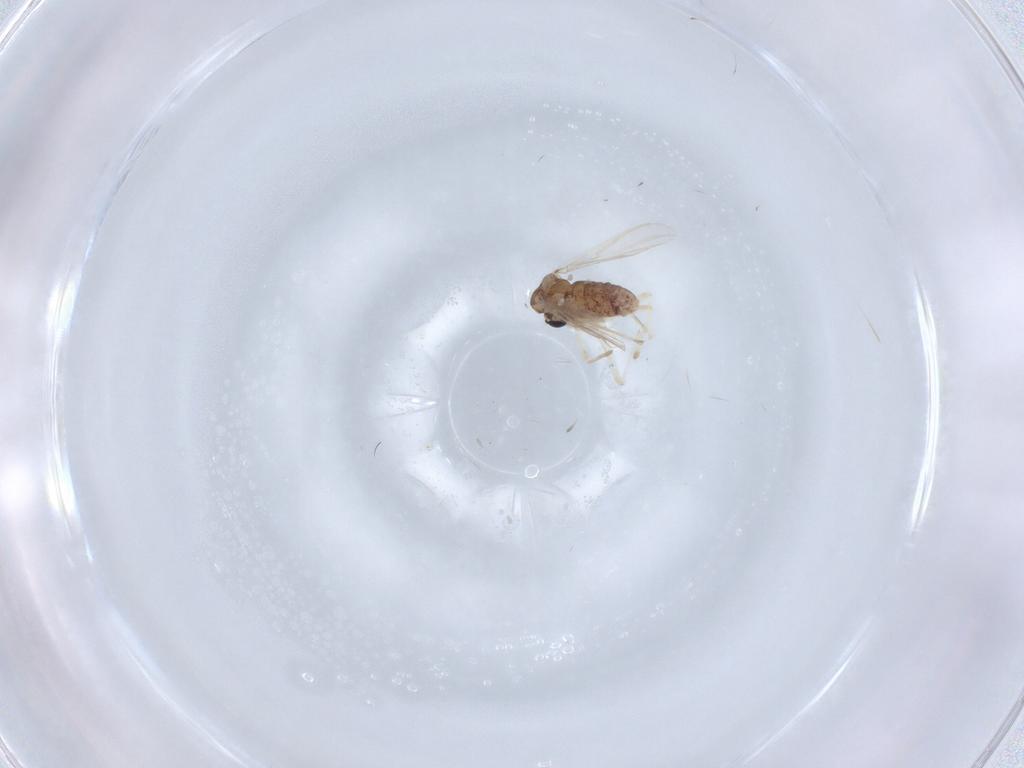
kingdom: Animalia
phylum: Arthropoda
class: Insecta
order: Diptera
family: Chironomidae
